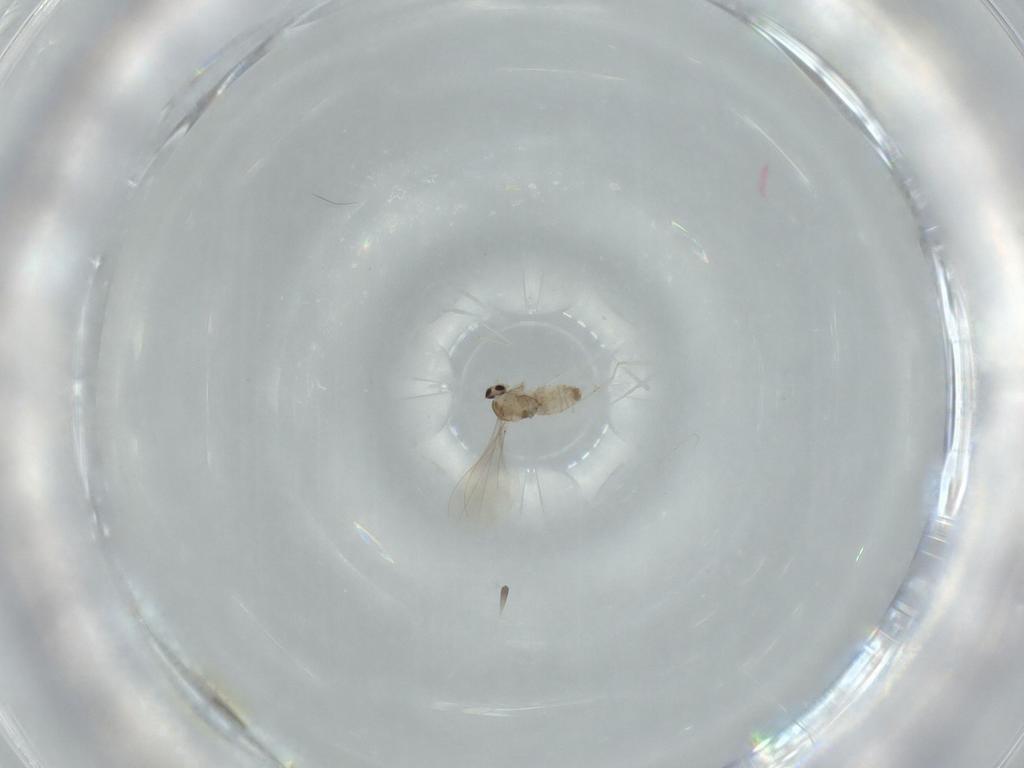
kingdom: Animalia
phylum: Arthropoda
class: Insecta
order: Diptera
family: Cecidomyiidae
